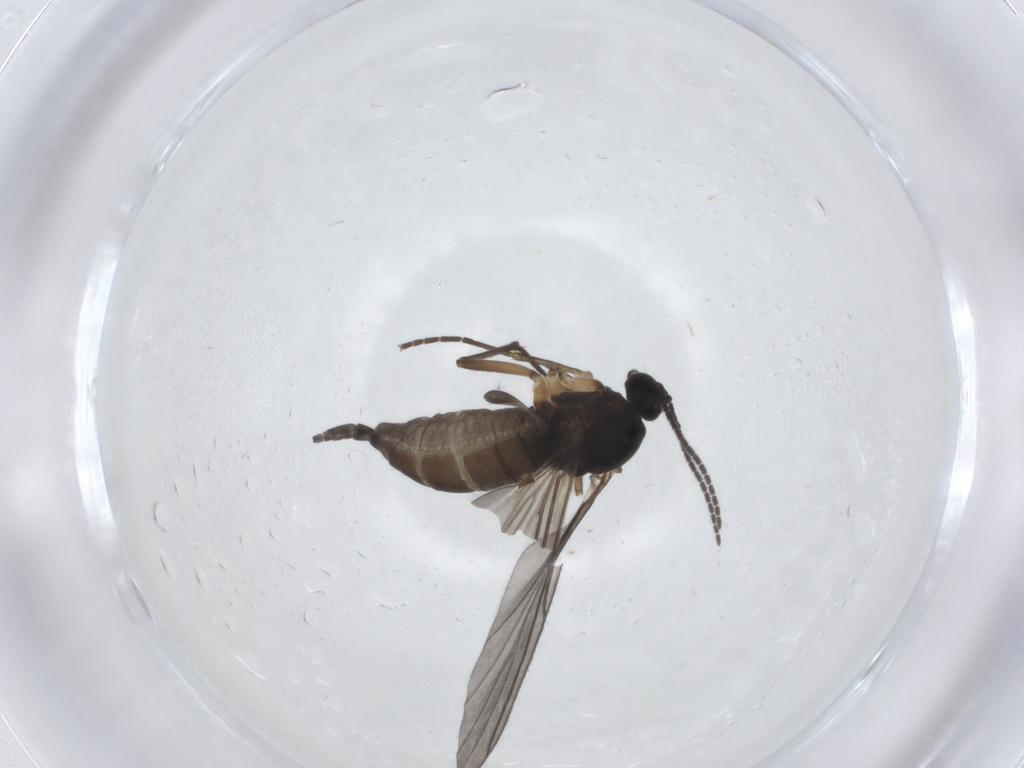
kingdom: Animalia
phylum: Arthropoda
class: Insecta
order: Diptera
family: Sciaridae
